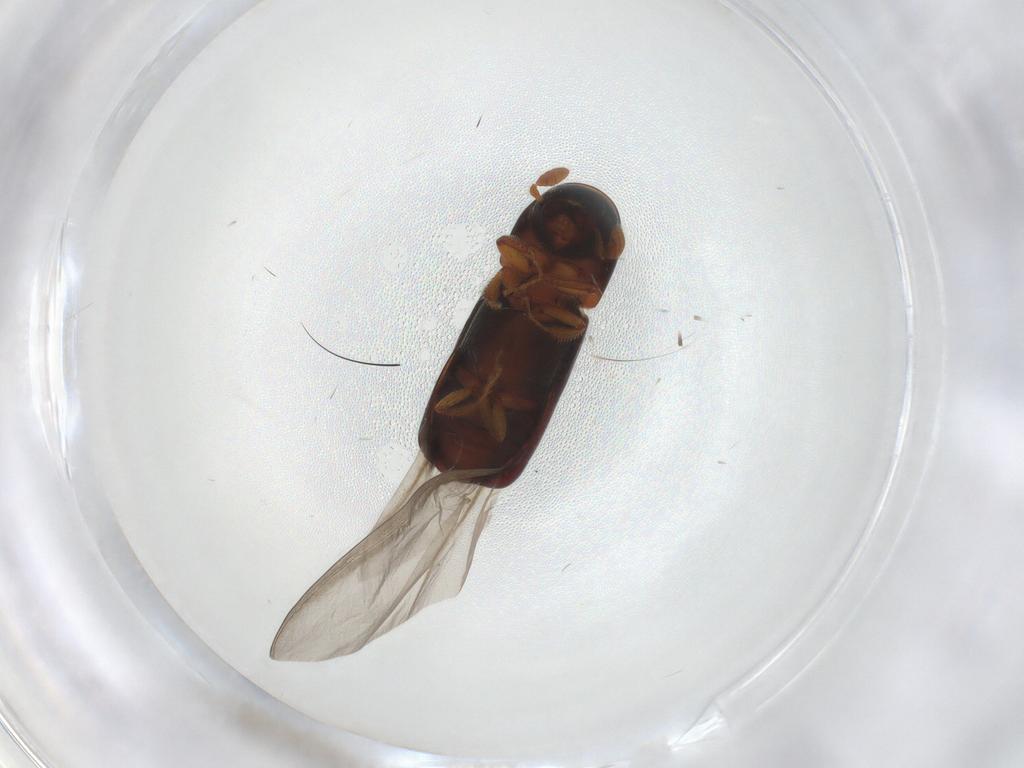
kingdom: Animalia
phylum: Arthropoda
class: Insecta
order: Coleoptera
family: Curculionidae
